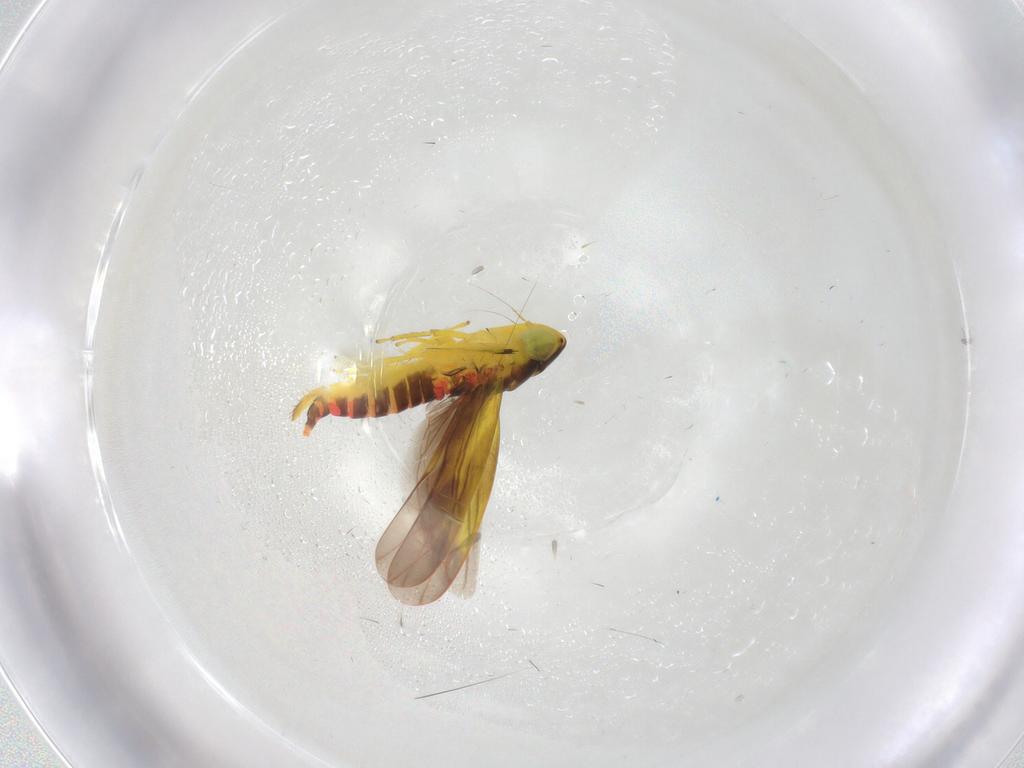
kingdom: Animalia
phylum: Arthropoda
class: Insecta
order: Hemiptera
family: Cicadellidae
